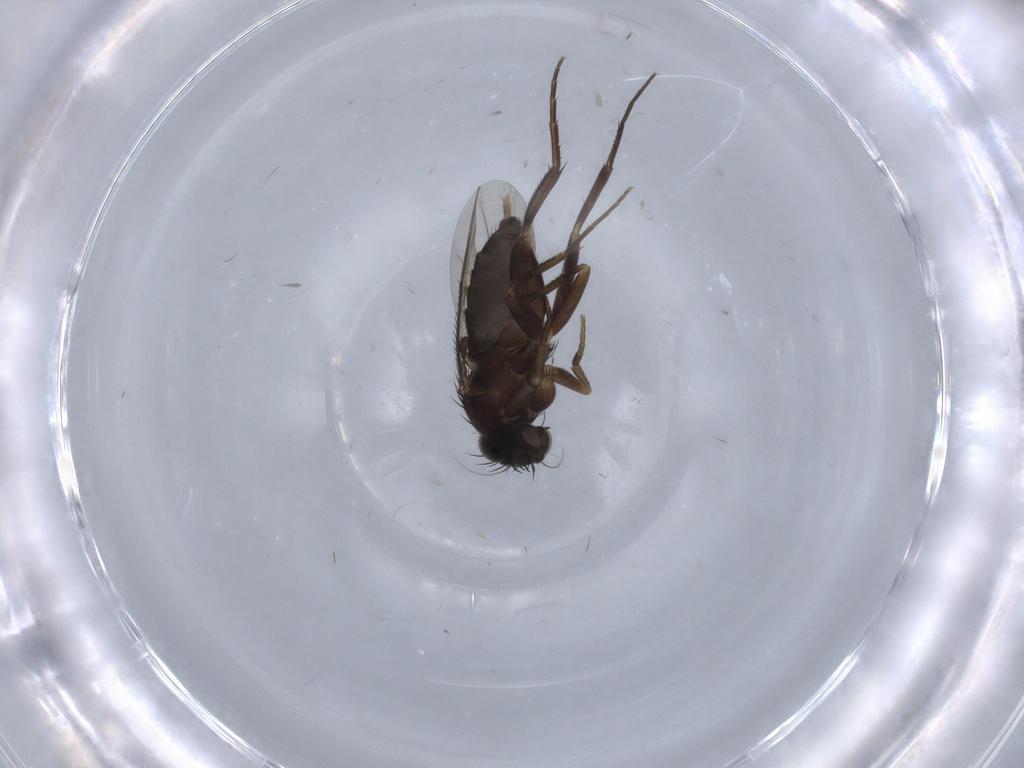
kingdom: Animalia
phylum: Arthropoda
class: Insecta
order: Diptera
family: Phoridae
